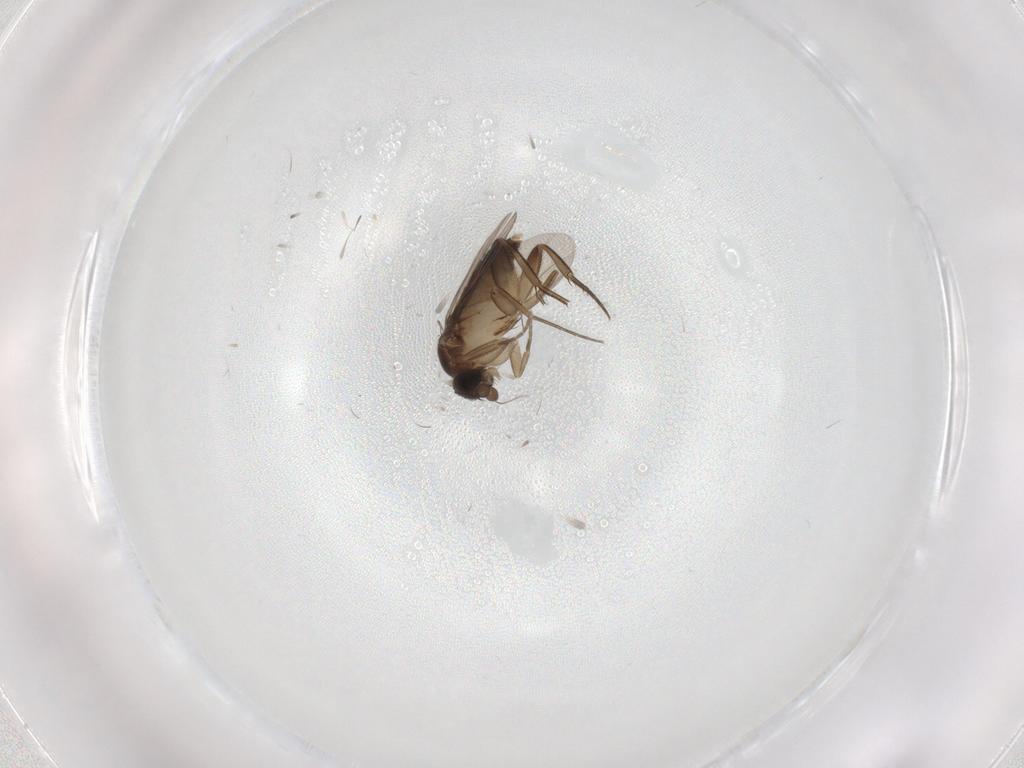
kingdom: Animalia
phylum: Arthropoda
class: Insecta
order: Diptera
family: Phoridae
